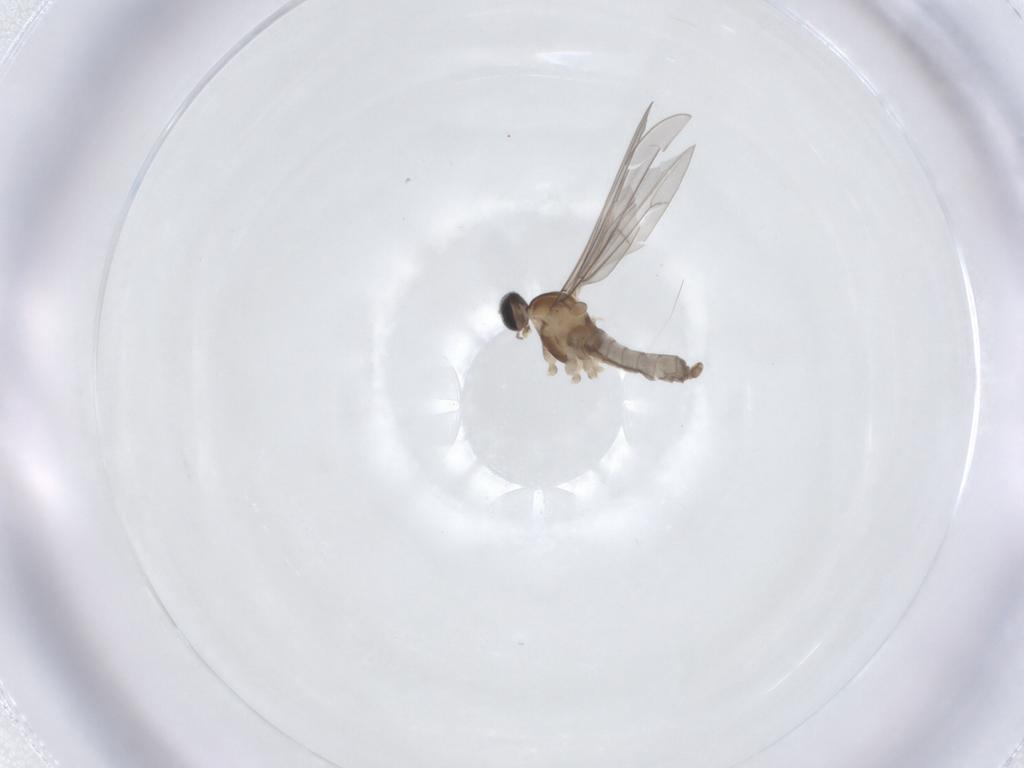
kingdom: Animalia
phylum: Arthropoda
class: Insecta
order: Diptera
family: Cecidomyiidae
